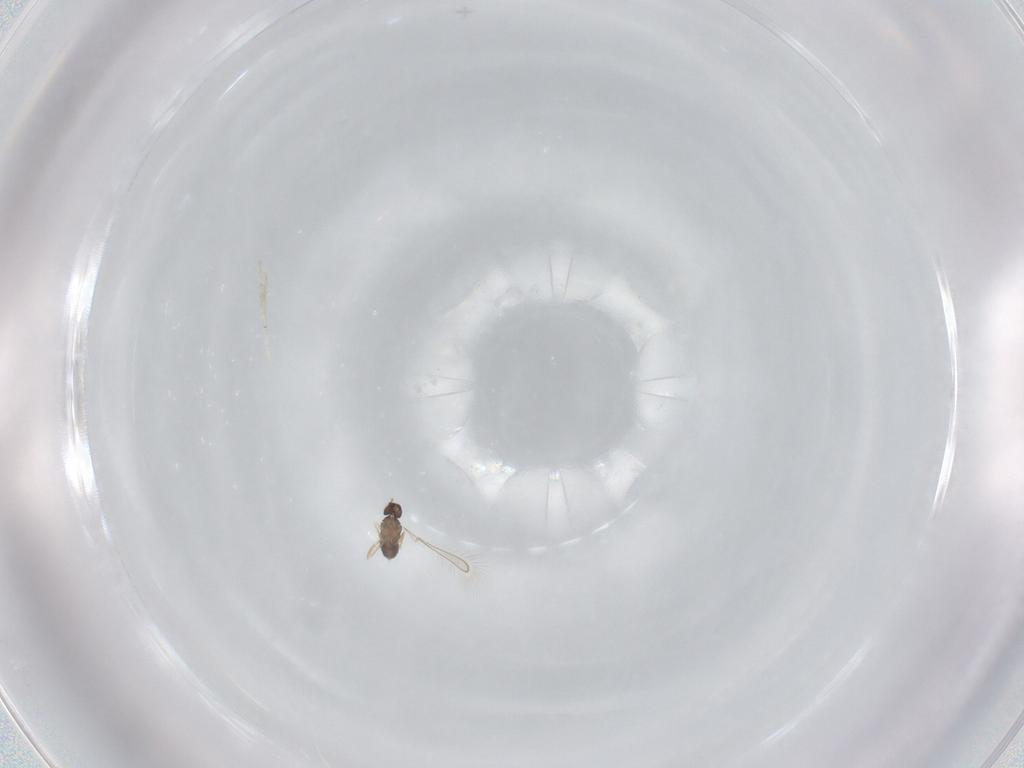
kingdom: Animalia
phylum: Arthropoda
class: Insecta
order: Hymenoptera
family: Mymaridae
